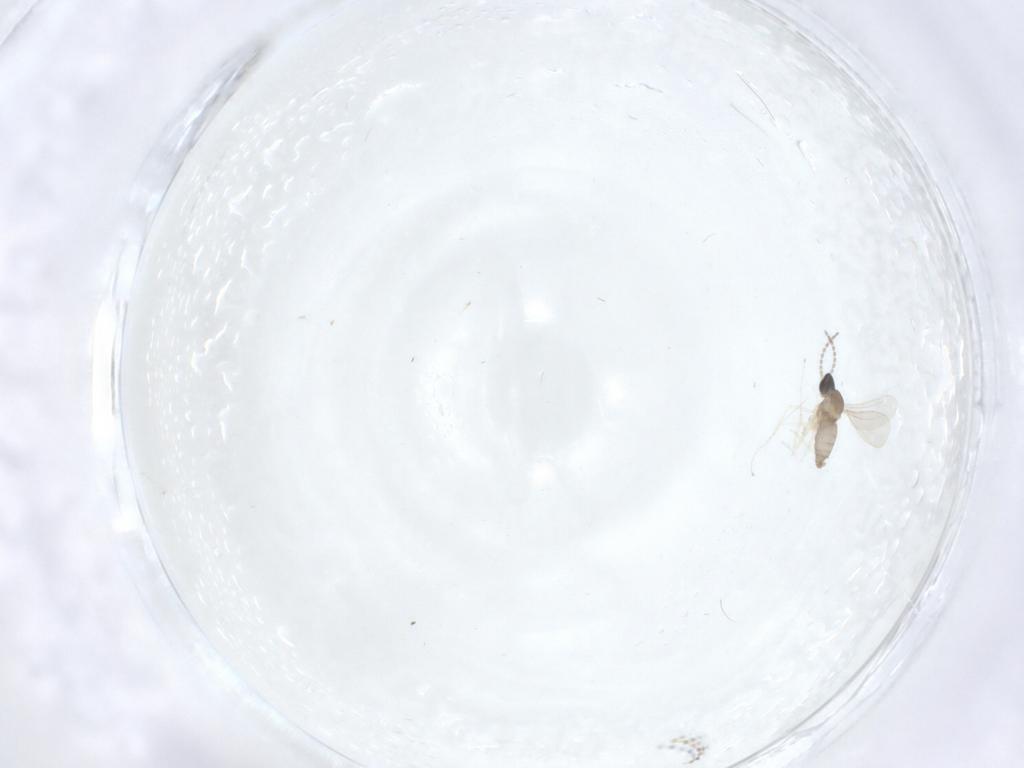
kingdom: Animalia
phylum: Arthropoda
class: Insecta
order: Diptera
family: Cecidomyiidae
